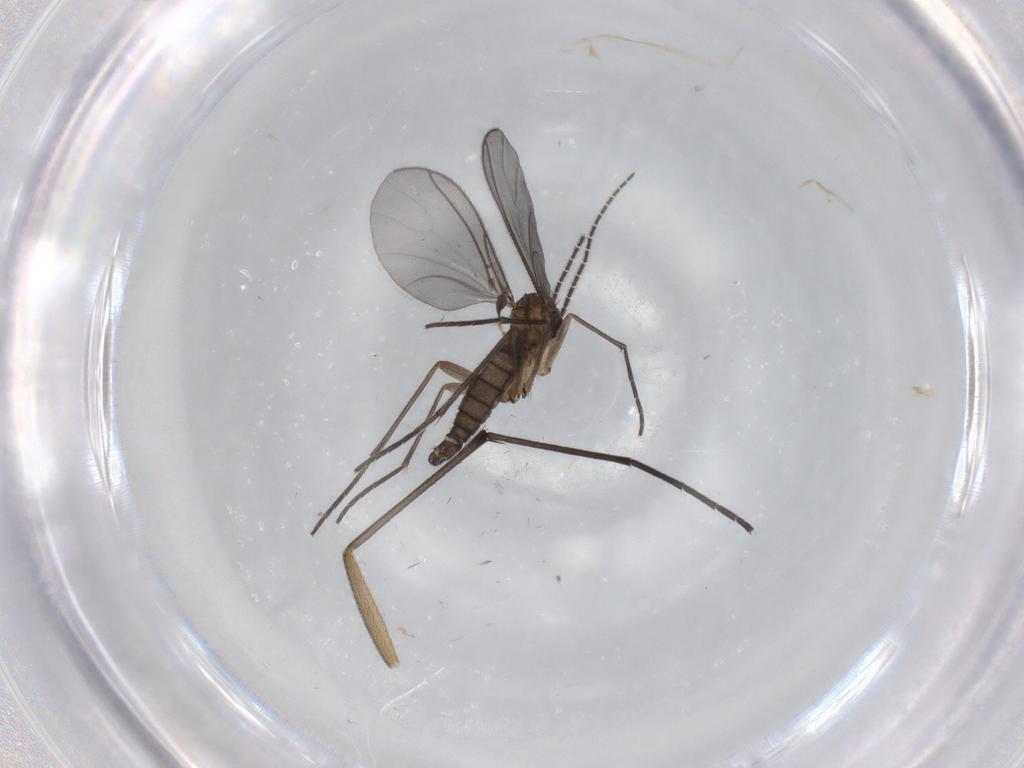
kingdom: Animalia
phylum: Arthropoda
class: Insecta
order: Diptera
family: Sciaridae
